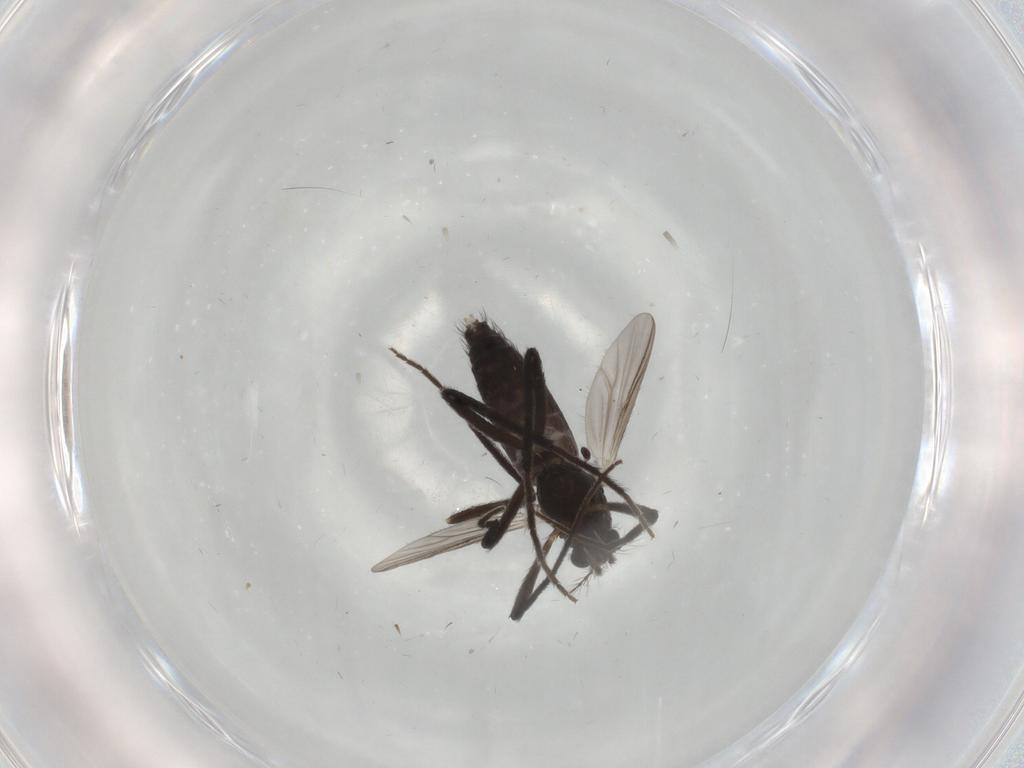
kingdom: Animalia
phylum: Arthropoda
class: Insecta
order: Diptera
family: Chironomidae
